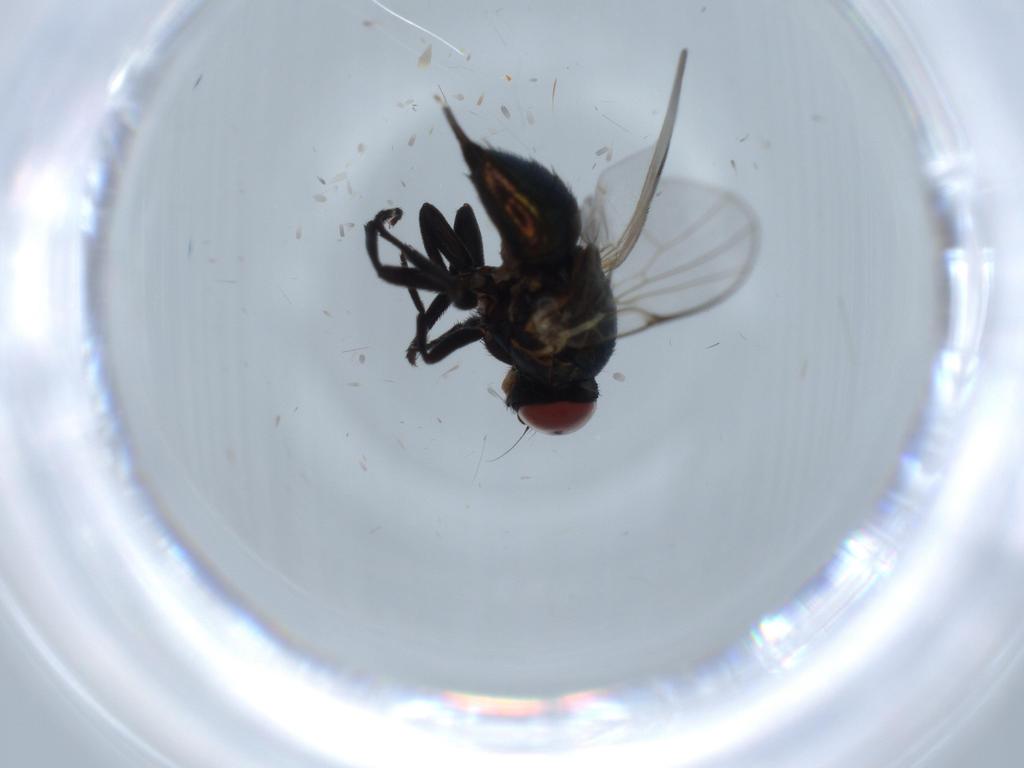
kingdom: Animalia
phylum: Arthropoda
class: Insecta
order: Diptera
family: Agromyzidae
